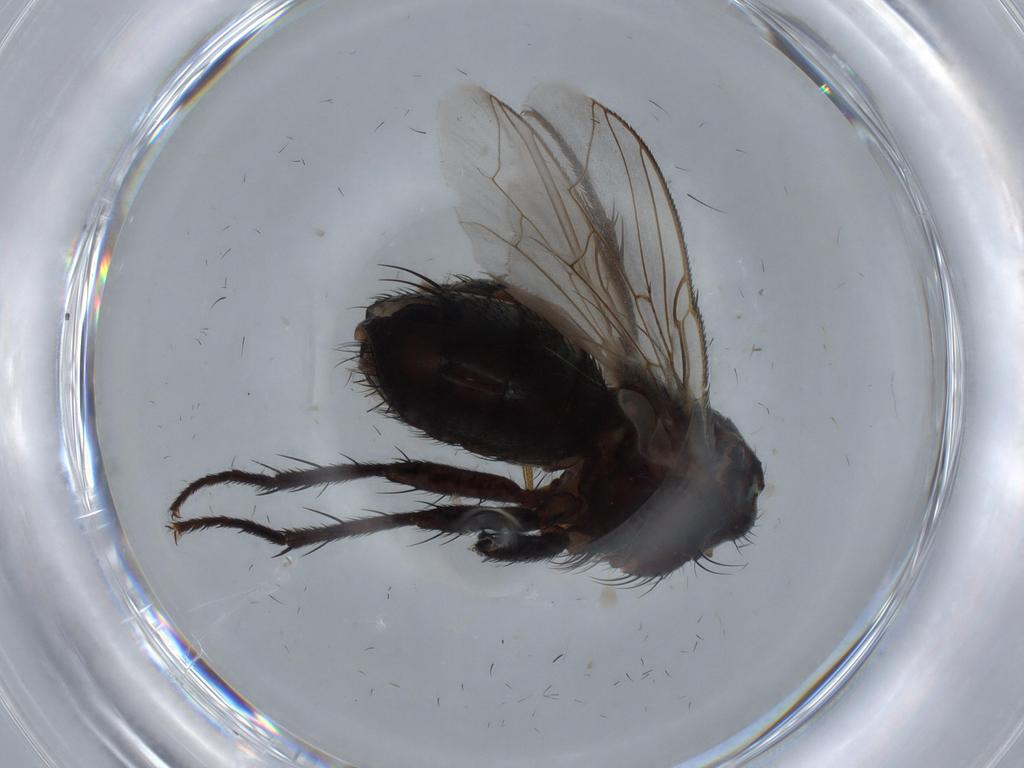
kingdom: Animalia
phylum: Arthropoda
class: Insecta
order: Diptera
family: Sarcophagidae
